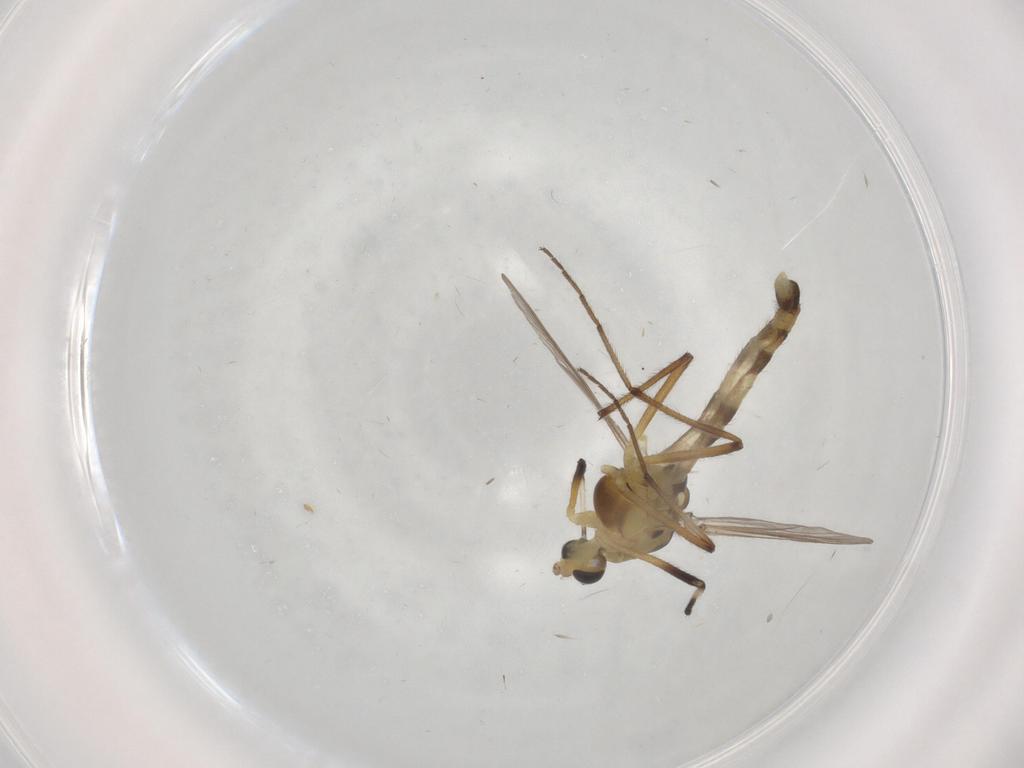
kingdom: Animalia
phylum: Arthropoda
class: Insecta
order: Diptera
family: Chironomidae
